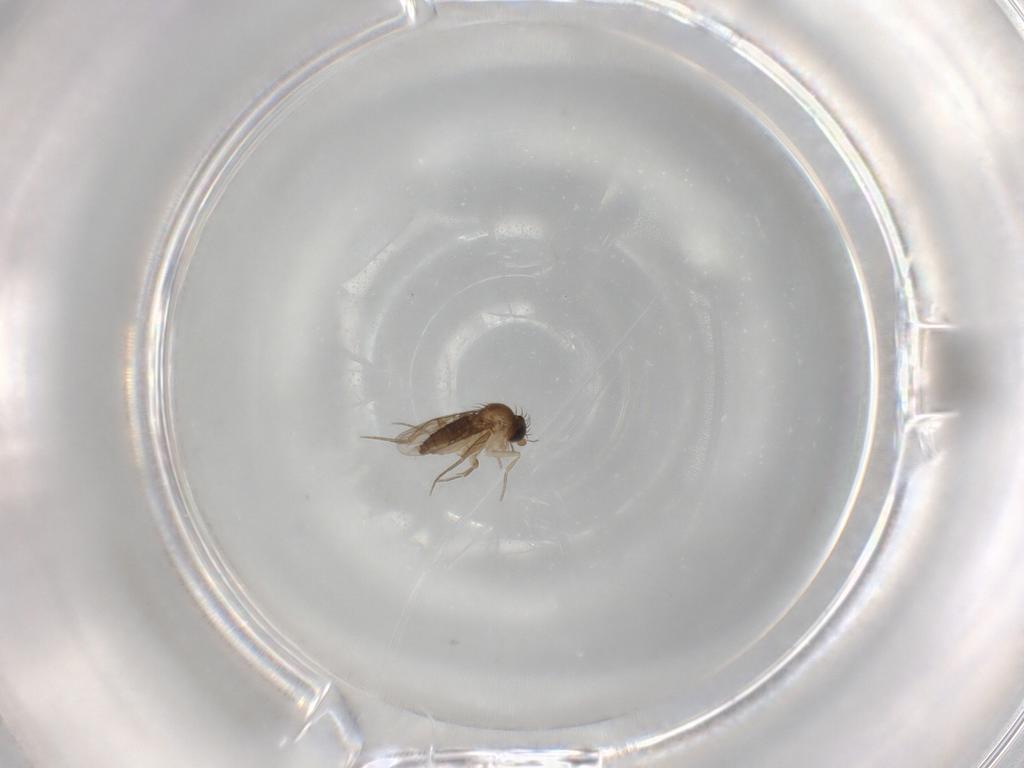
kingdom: Animalia
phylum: Arthropoda
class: Insecta
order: Diptera
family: Phoridae
